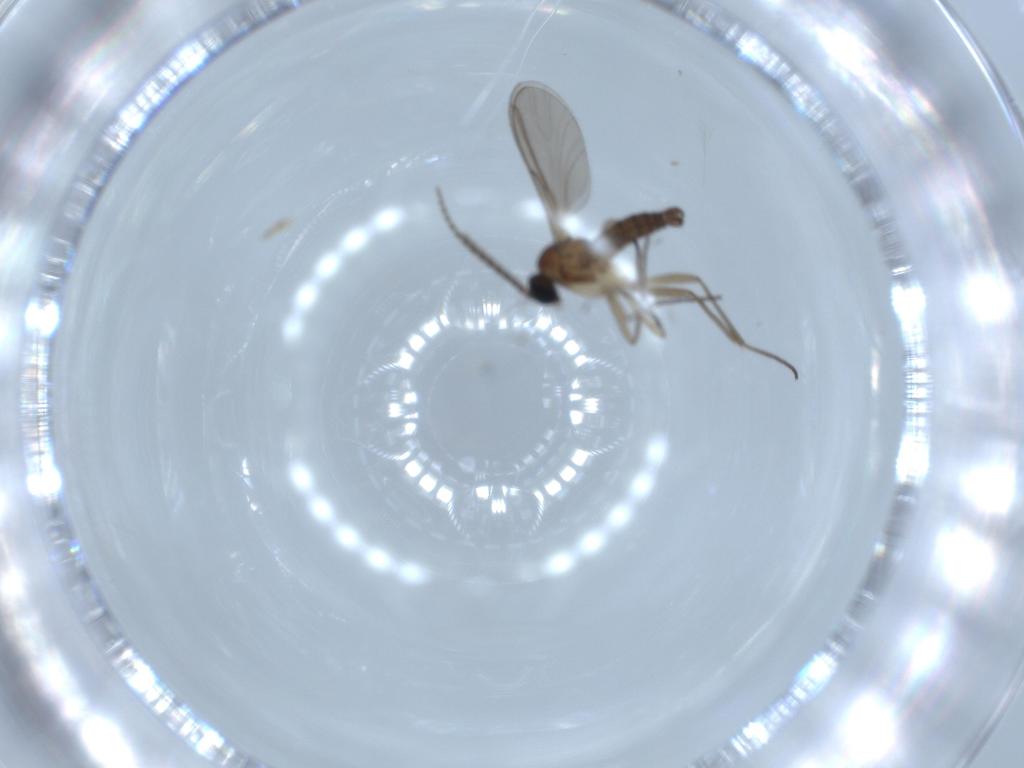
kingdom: Animalia
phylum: Arthropoda
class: Insecta
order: Diptera
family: Sciaridae
